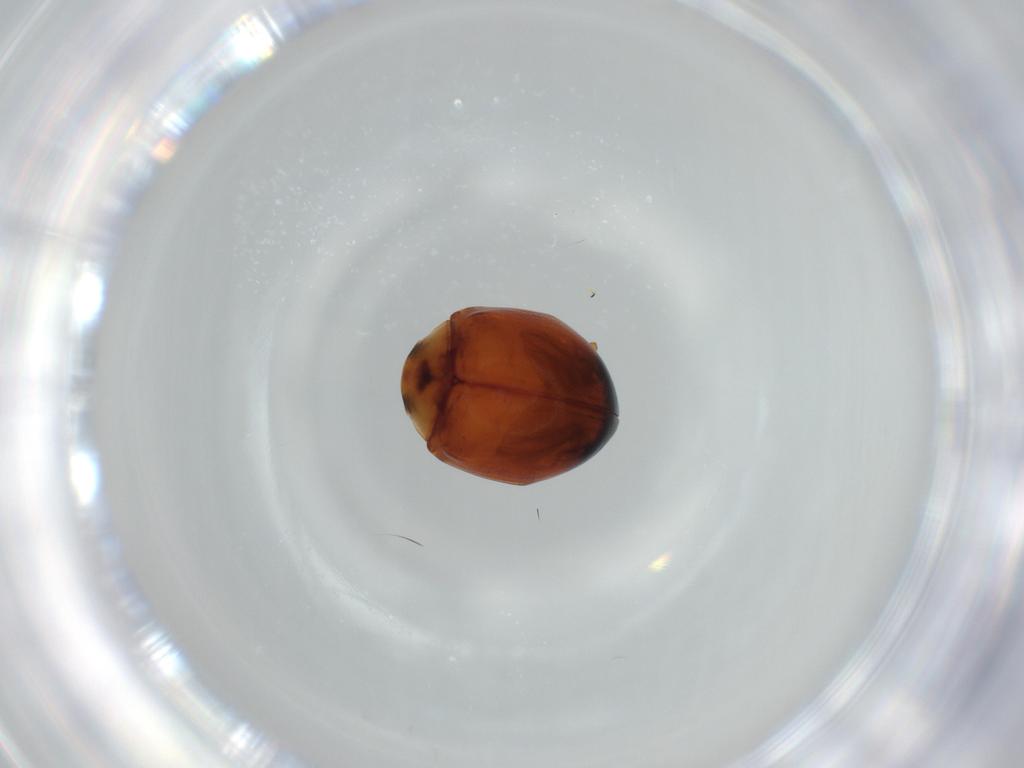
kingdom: Animalia
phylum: Arthropoda
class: Insecta
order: Coleoptera
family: Coccinellidae
